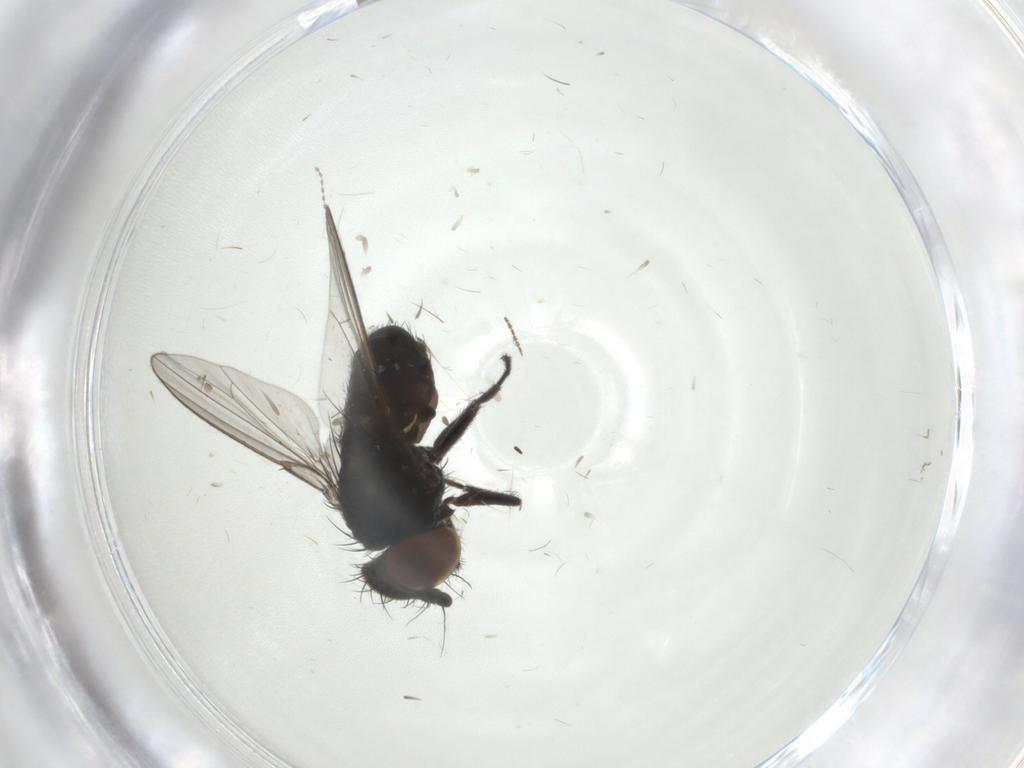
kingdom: Animalia
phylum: Arthropoda
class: Insecta
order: Diptera
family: Milichiidae
